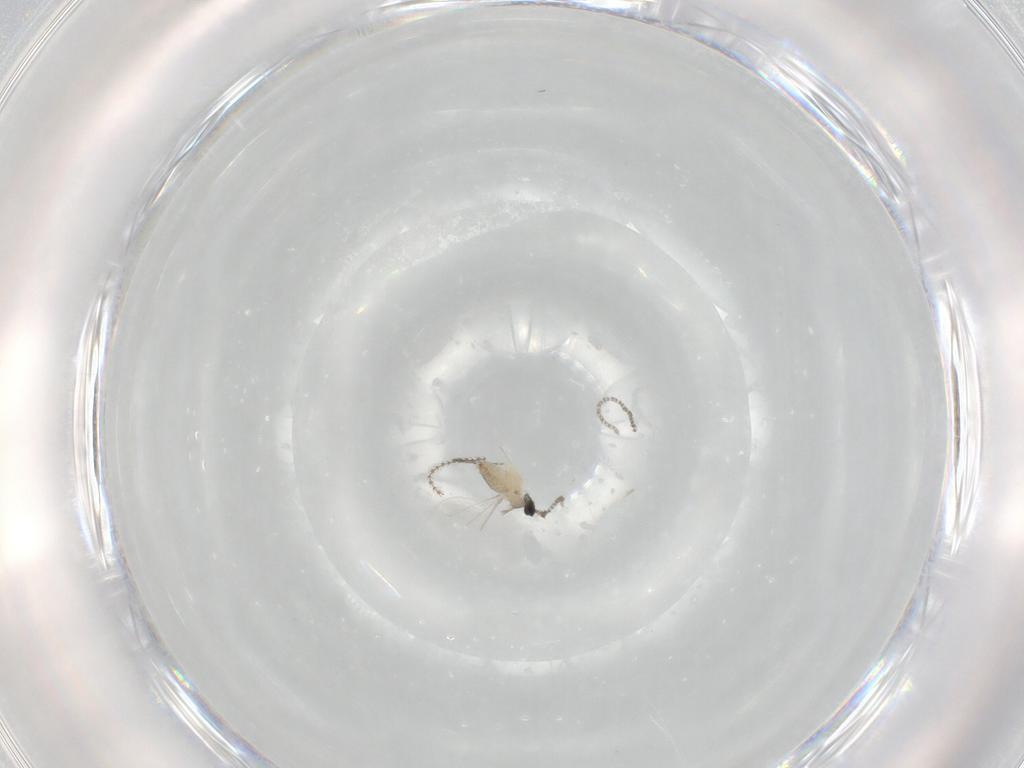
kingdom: Animalia
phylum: Arthropoda
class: Insecta
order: Diptera
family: Cecidomyiidae
